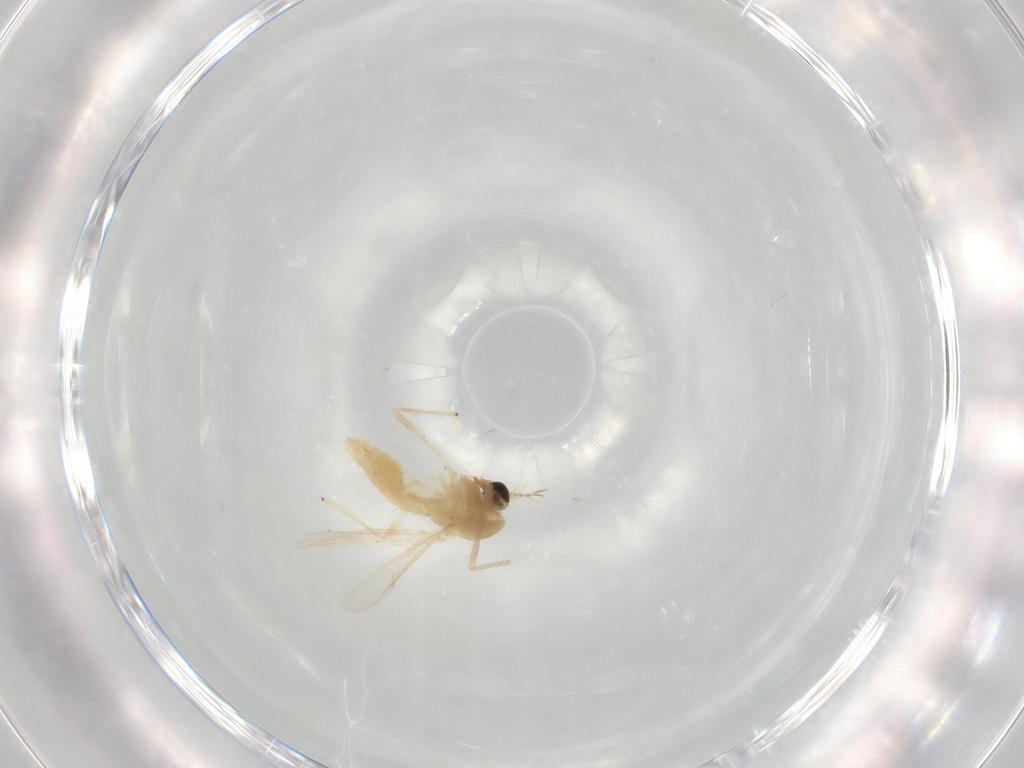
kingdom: Animalia
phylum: Arthropoda
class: Insecta
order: Diptera
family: Chironomidae
